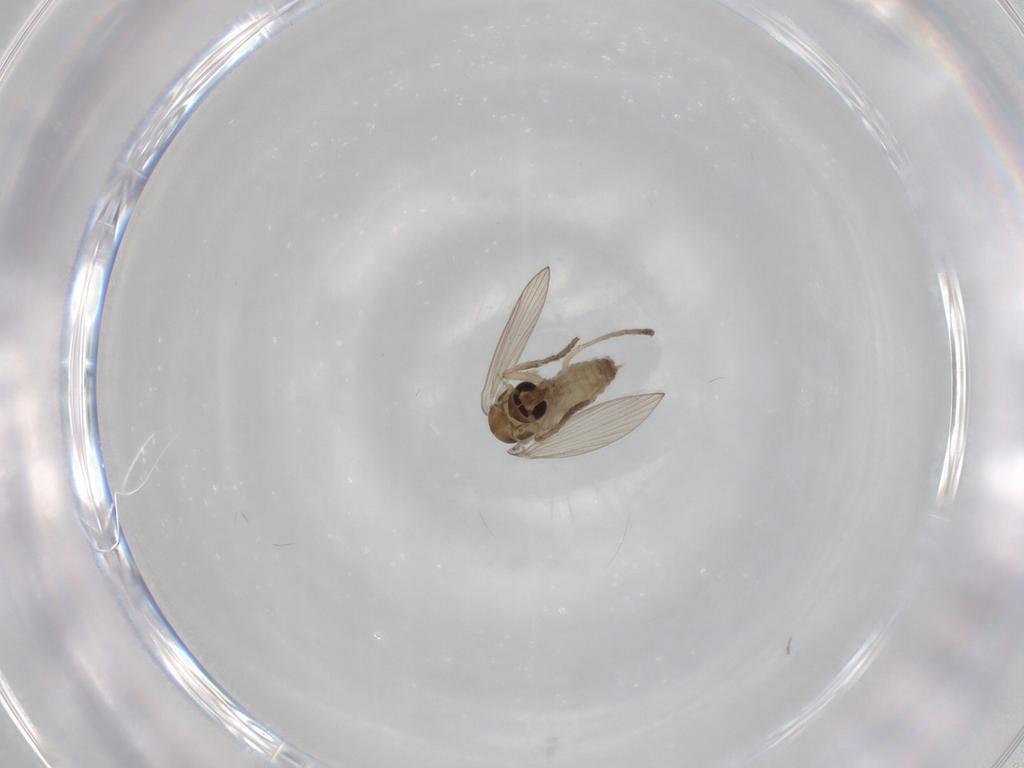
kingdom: Animalia
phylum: Arthropoda
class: Insecta
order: Diptera
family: Psychodidae
